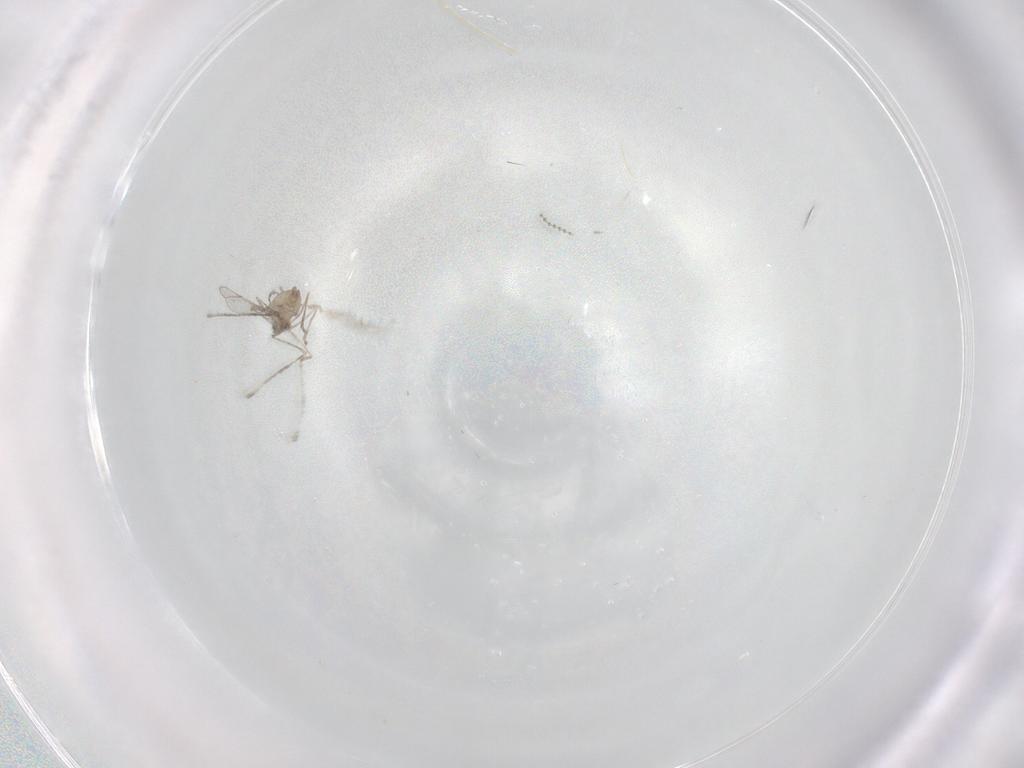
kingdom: Animalia
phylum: Arthropoda
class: Insecta
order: Diptera
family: Cecidomyiidae
